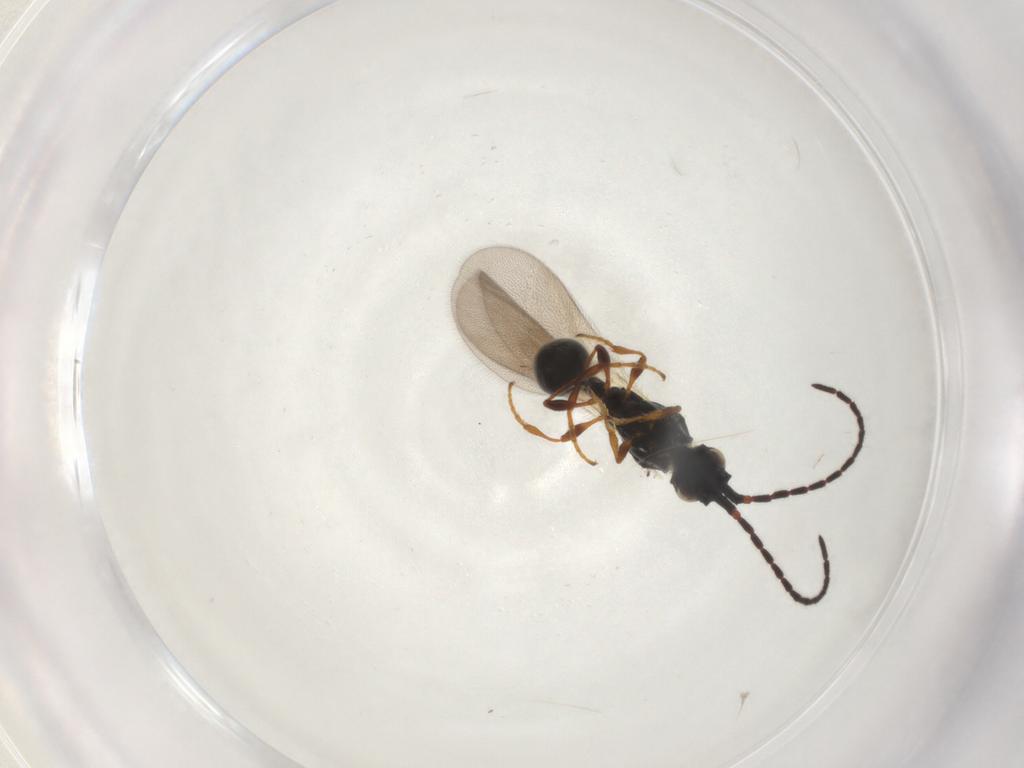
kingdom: Animalia
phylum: Arthropoda
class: Insecta
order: Hymenoptera
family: Diapriidae
